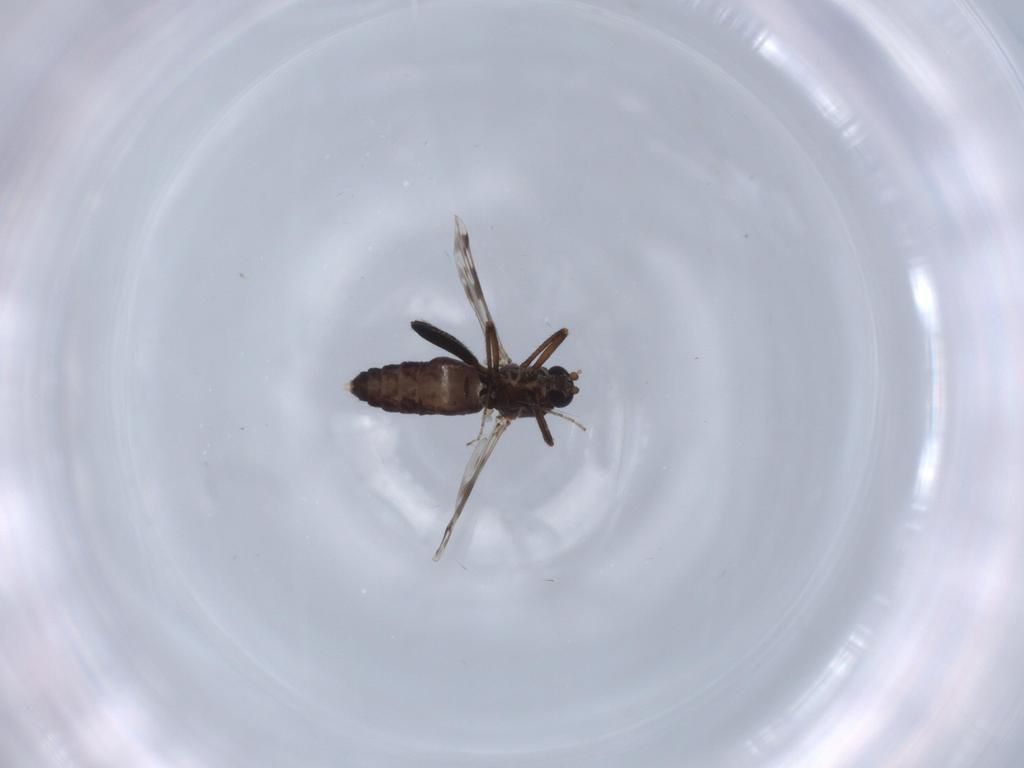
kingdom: Animalia
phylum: Arthropoda
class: Insecta
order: Diptera
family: Tabanidae
